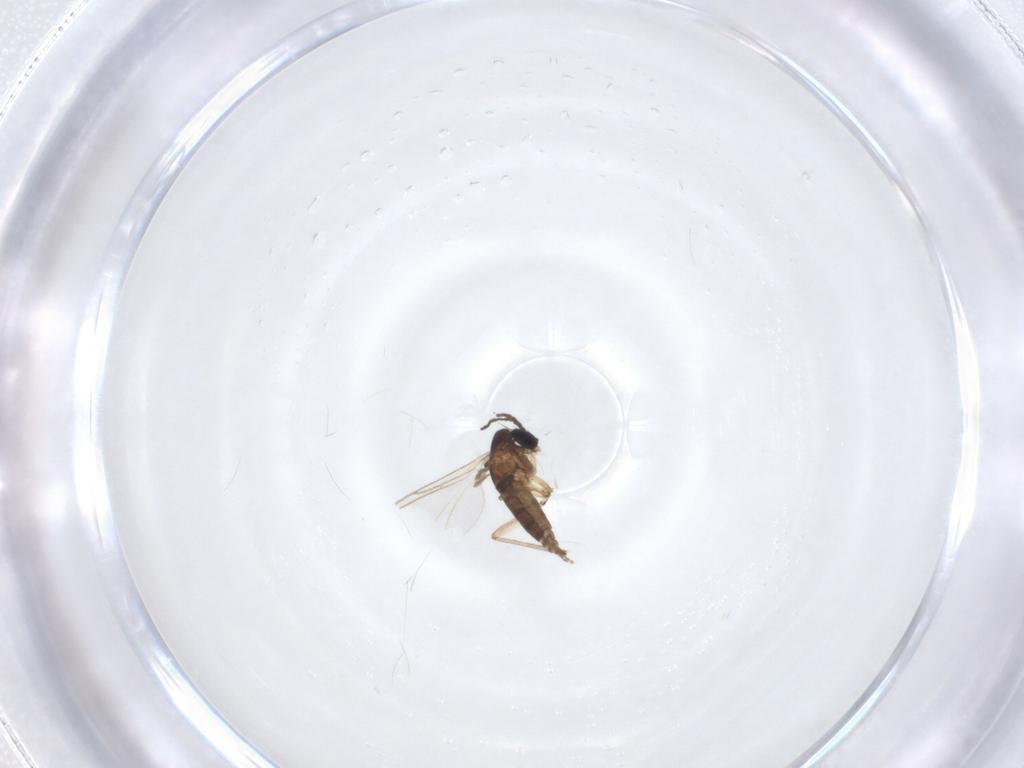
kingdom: Animalia
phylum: Arthropoda
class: Insecta
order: Diptera
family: Sciaridae
